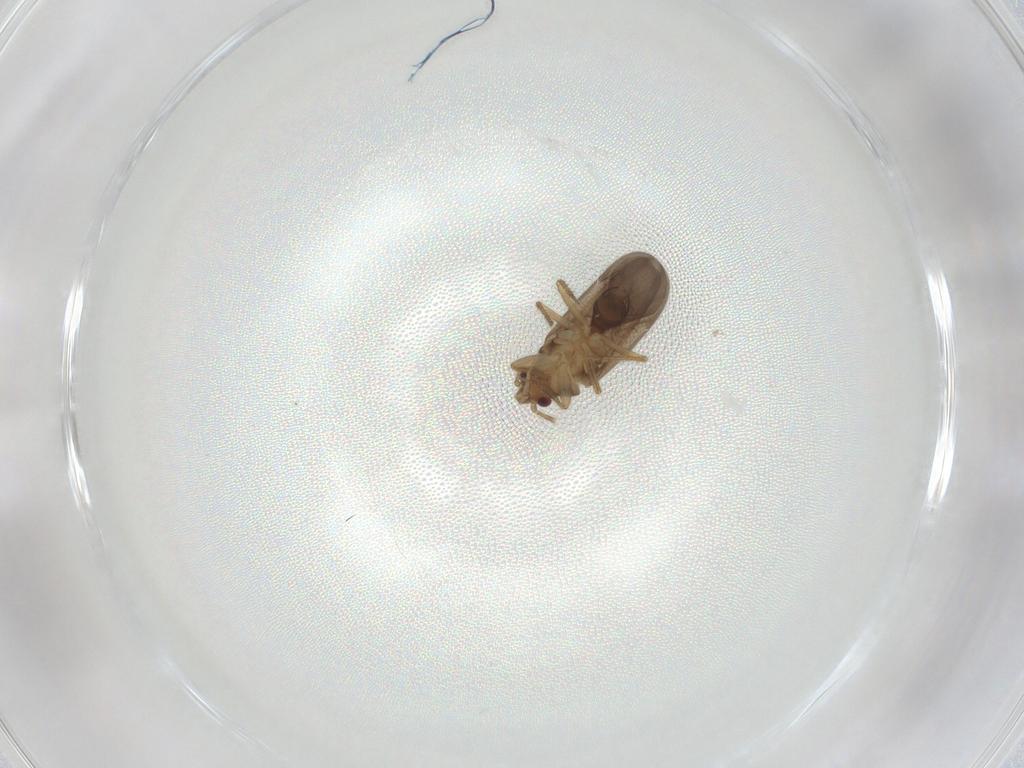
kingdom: Animalia
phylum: Arthropoda
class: Insecta
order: Hemiptera
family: Ceratocombidae
